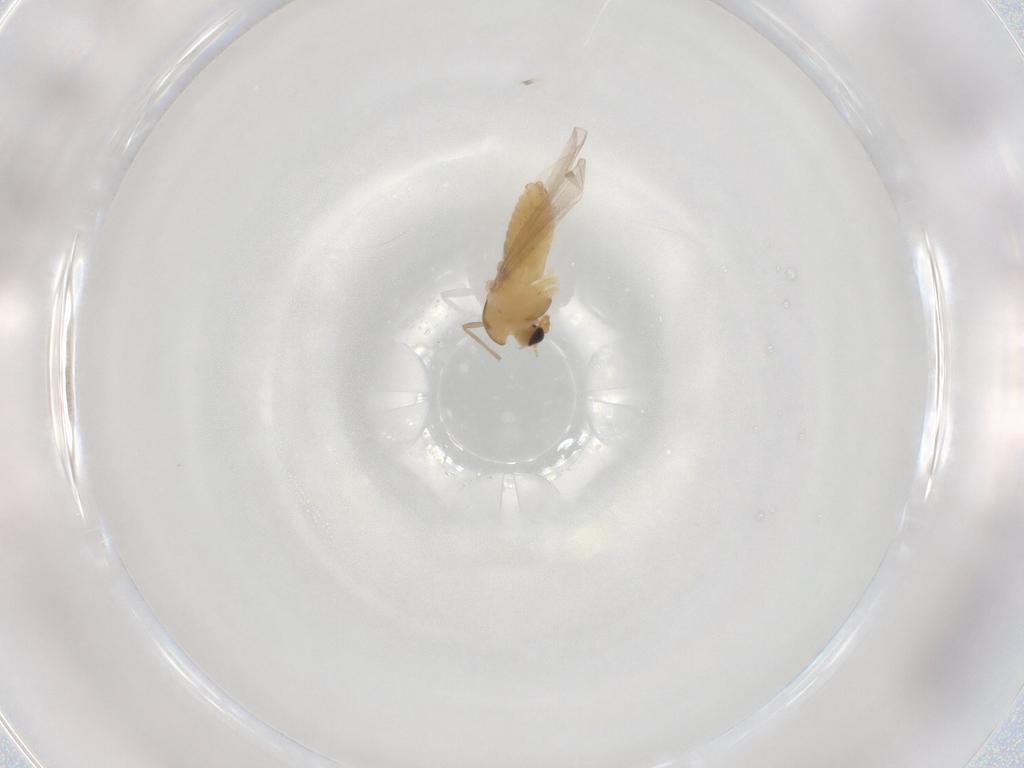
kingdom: Animalia
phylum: Arthropoda
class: Insecta
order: Diptera
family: Chironomidae
